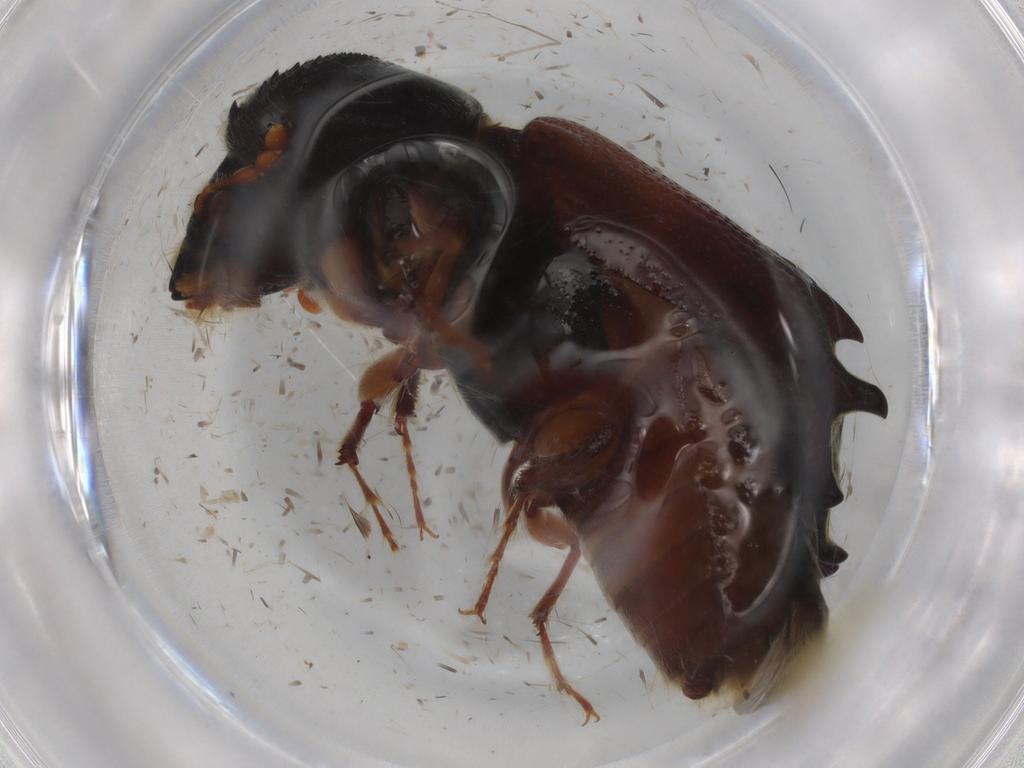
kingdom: Animalia
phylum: Arthropoda
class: Insecta
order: Coleoptera
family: Bostrichidae
